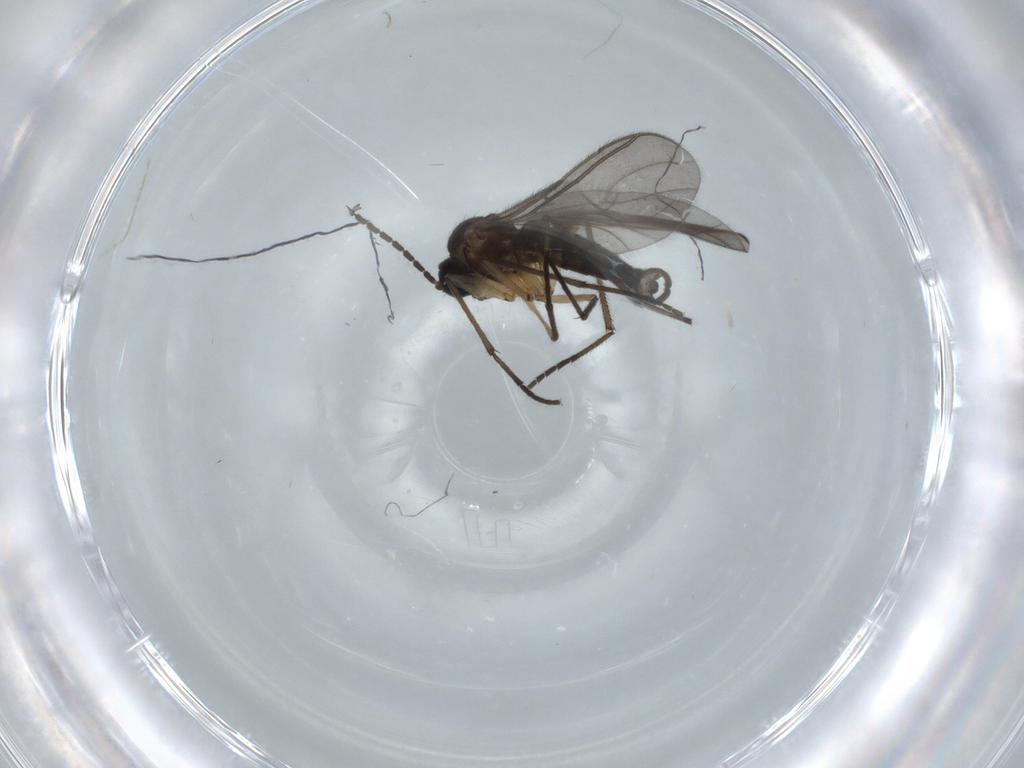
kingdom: Animalia
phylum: Arthropoda
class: Insecta
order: Diptera
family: Sciaridae
